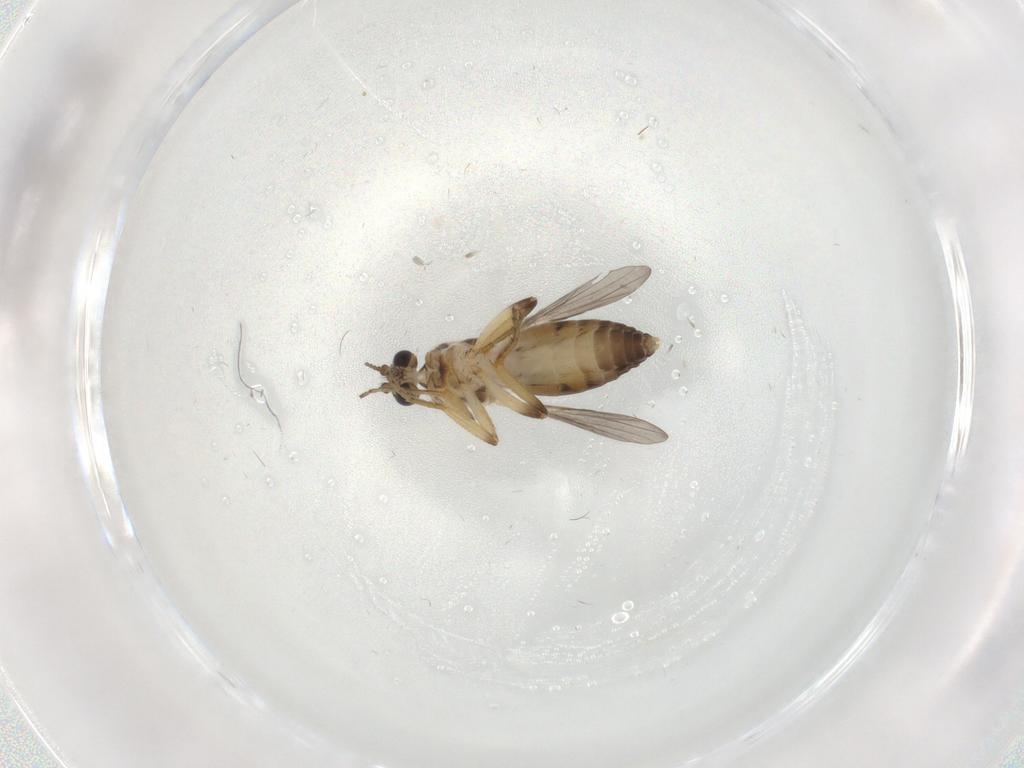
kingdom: Animalia
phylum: Arthropoda
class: Insecta
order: Diptera
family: Ceratopogonidae
